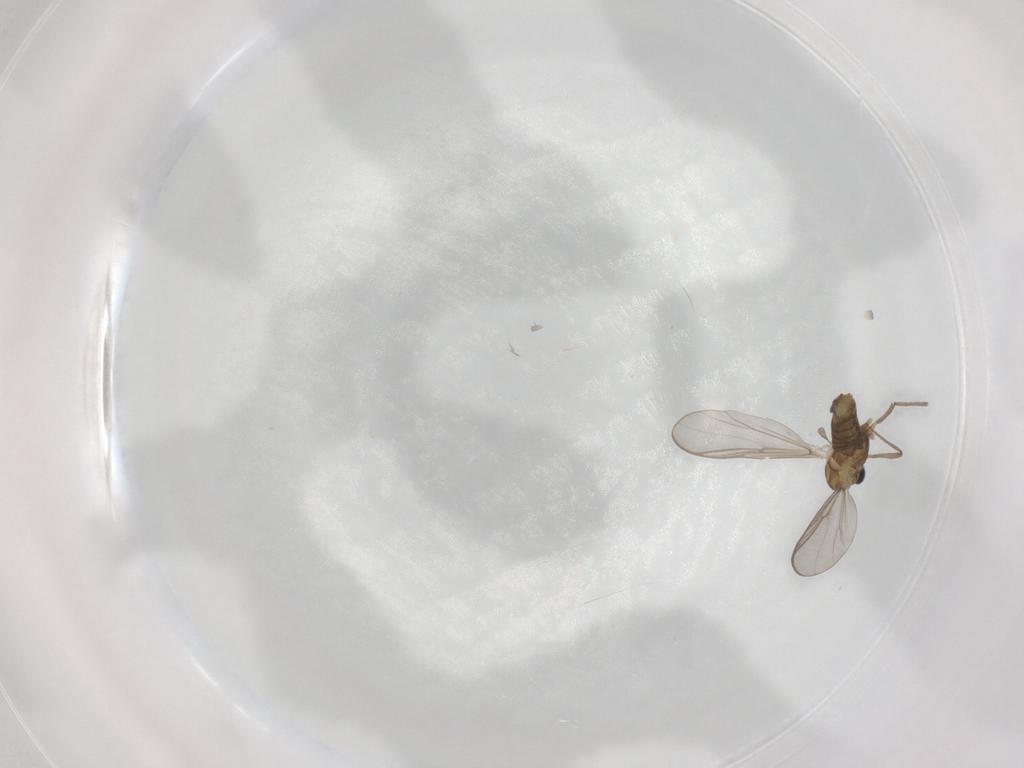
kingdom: Animalia
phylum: Arthropoda
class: Insecta
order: Diptera
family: Chironomidae
